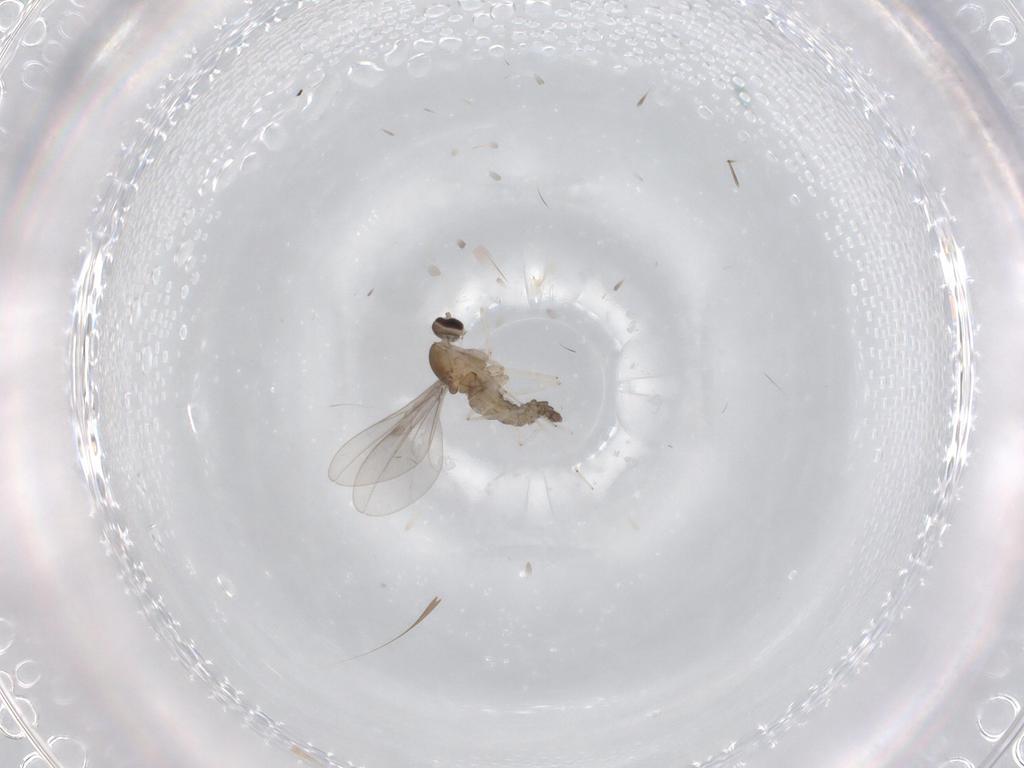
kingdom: Animalia
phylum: Arthropoda
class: Insecta
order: Diptera
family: Cecidomyiidae
